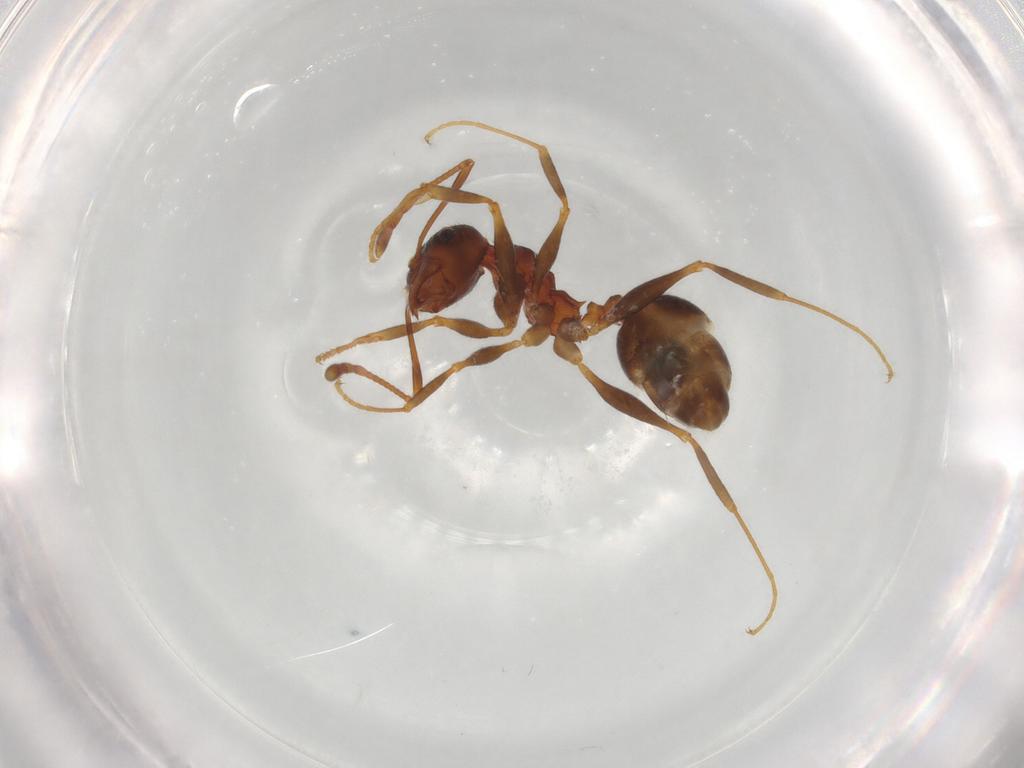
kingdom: Animalia
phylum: Arthropoda
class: Insecta
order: Hymenoptera
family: Formicidae
